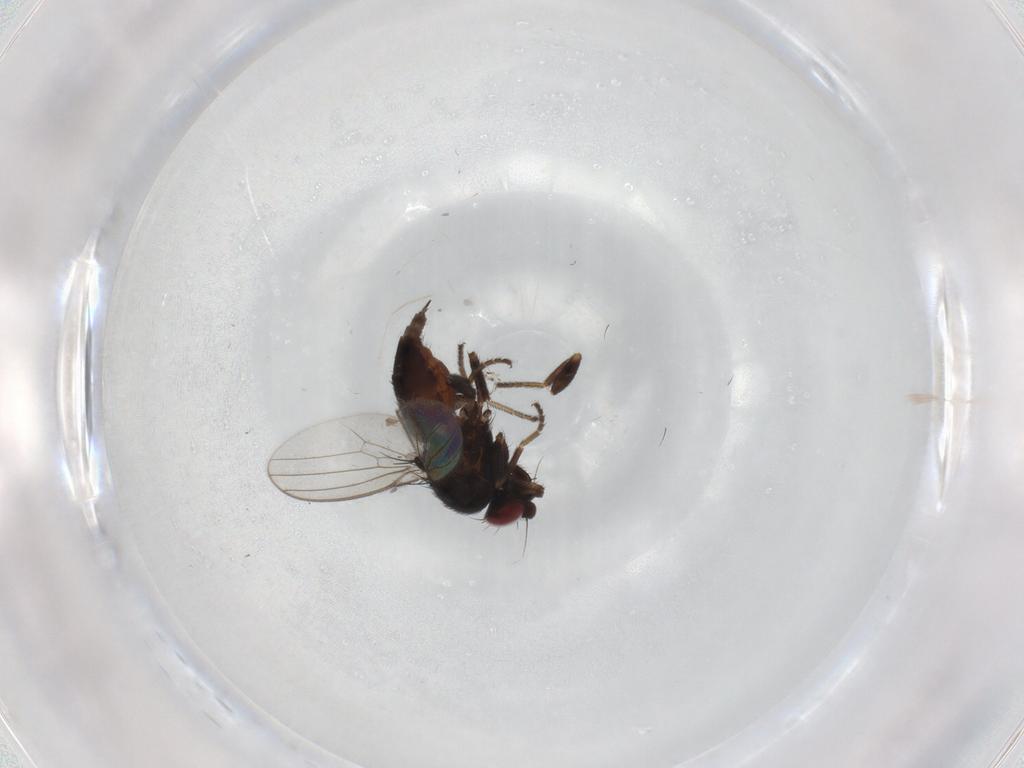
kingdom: Animalia
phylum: Arthropoda
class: Insecta
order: Diptera
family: Milichiidae
